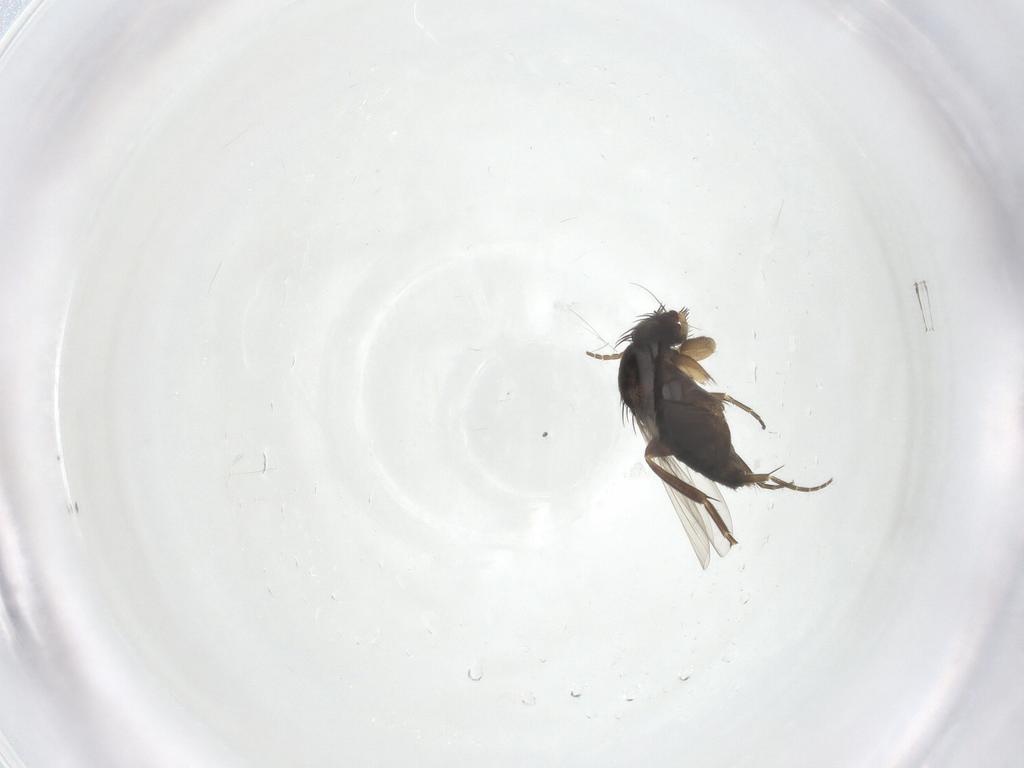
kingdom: Animalia
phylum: Arthropoda
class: Insecta
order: Diptera
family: Phoridae
